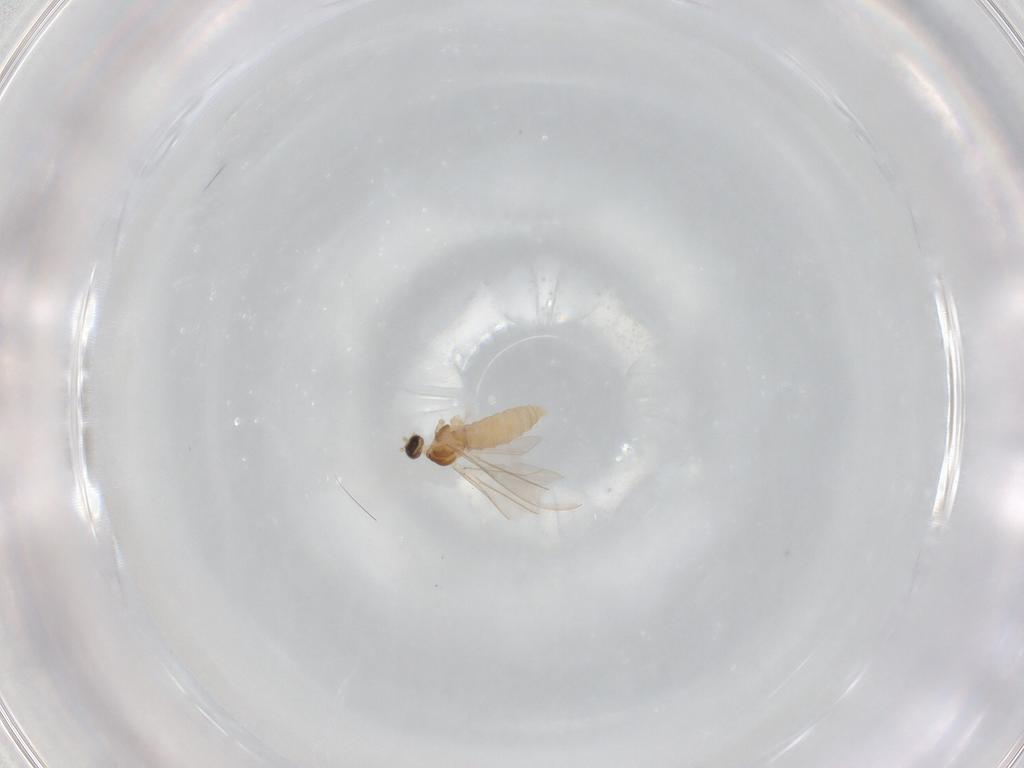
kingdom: Animalia
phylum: Arthropoda
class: Insecta
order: Diptera
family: Cecidomyiidae
